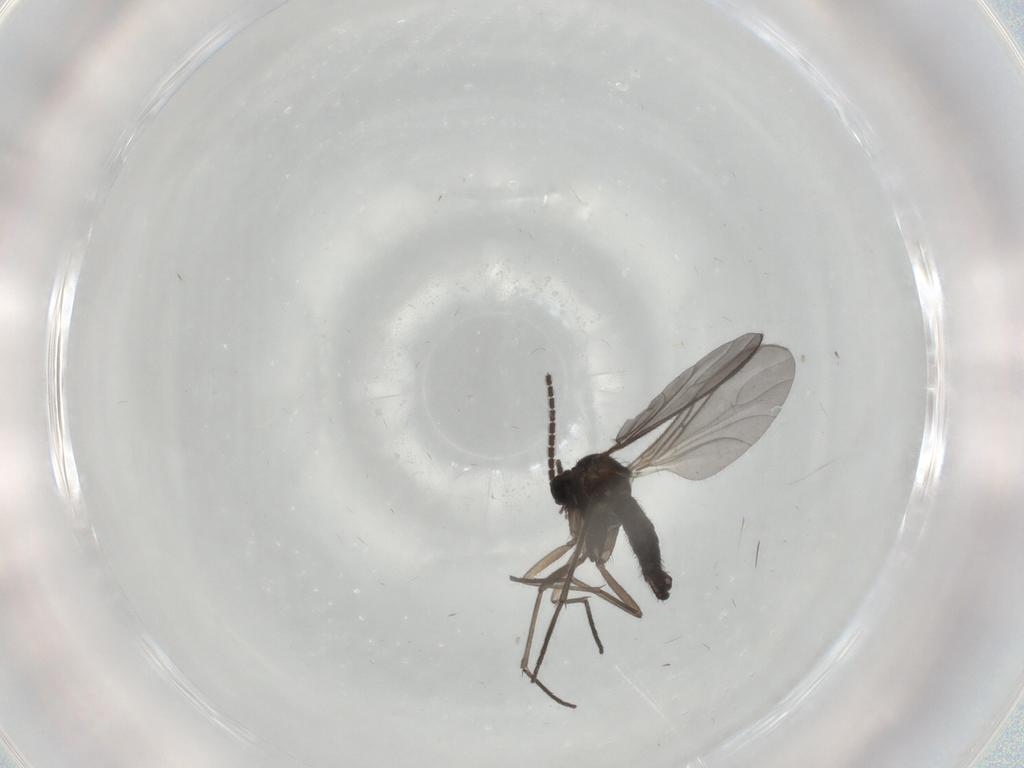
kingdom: Animalia
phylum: Arthropoda
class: Insecta
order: Diptera
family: Sciaridae
